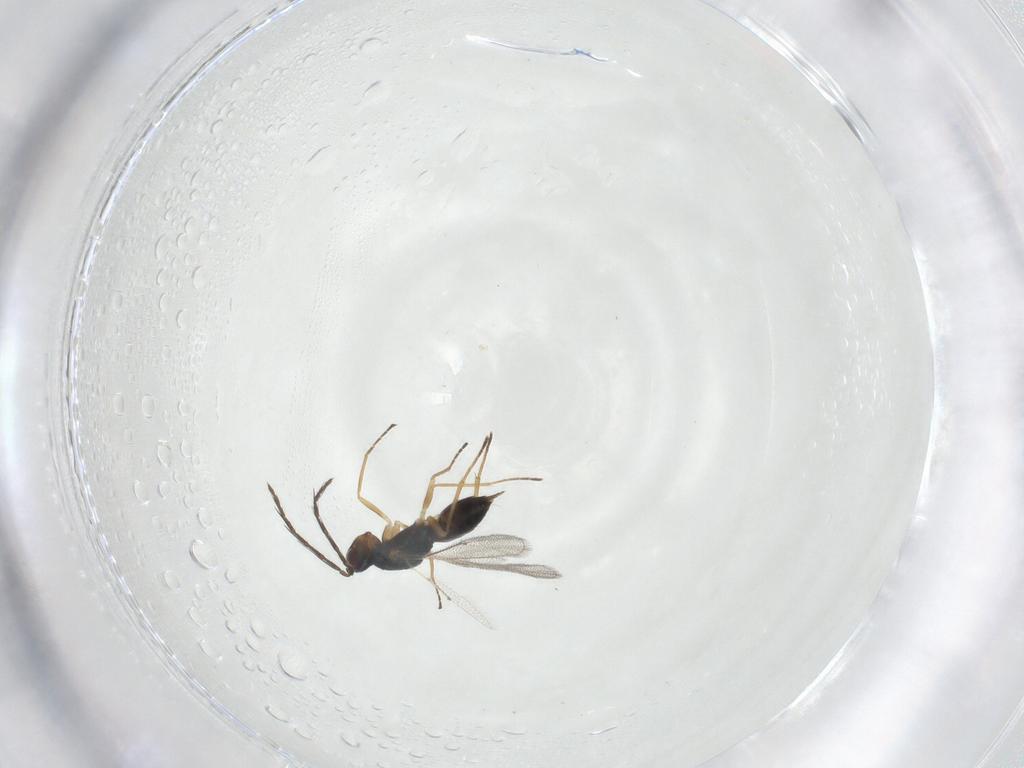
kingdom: Animalia
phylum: Arthropoda
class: Insecta
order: Hymenoptera
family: Eulophidae
